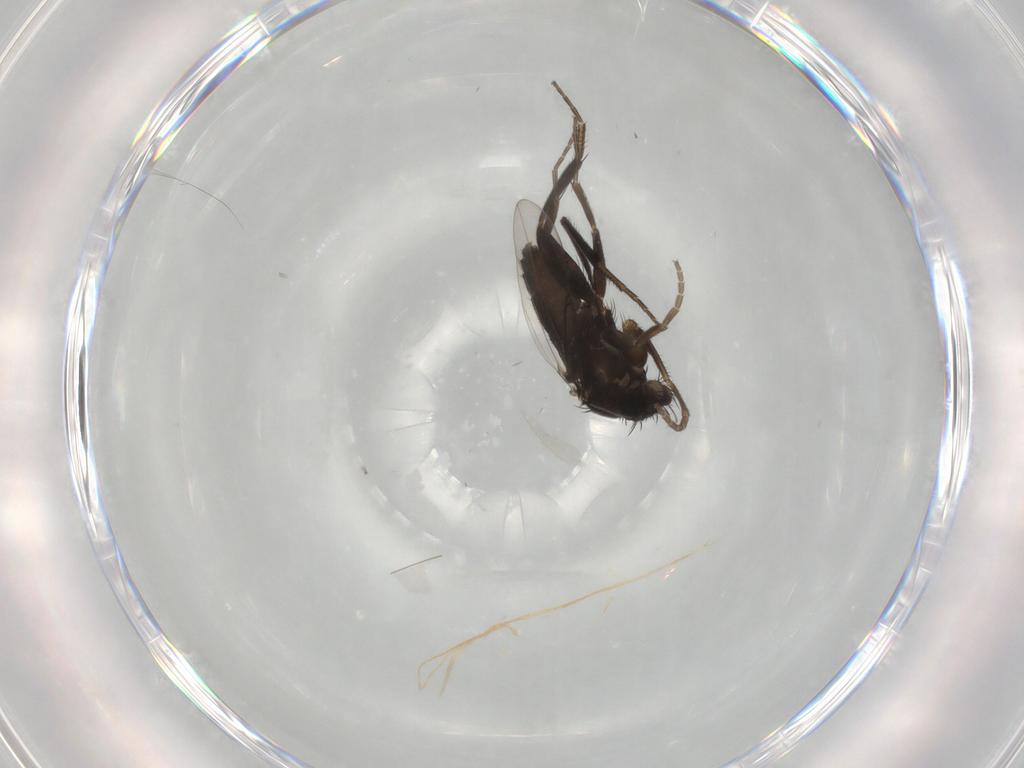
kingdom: Animalia
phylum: Arthropoda
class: Insecta
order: Diptera
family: Phoridae
